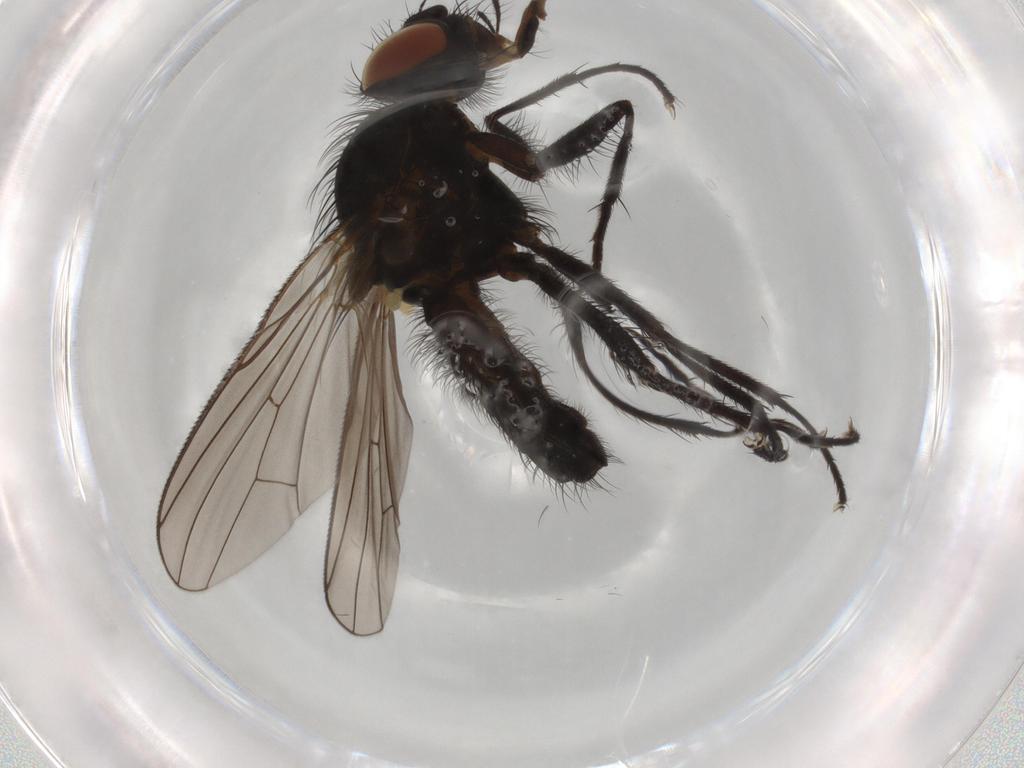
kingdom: Animalia
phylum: Arthropoda
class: Insecta
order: Diptera
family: Anthomyiidae
